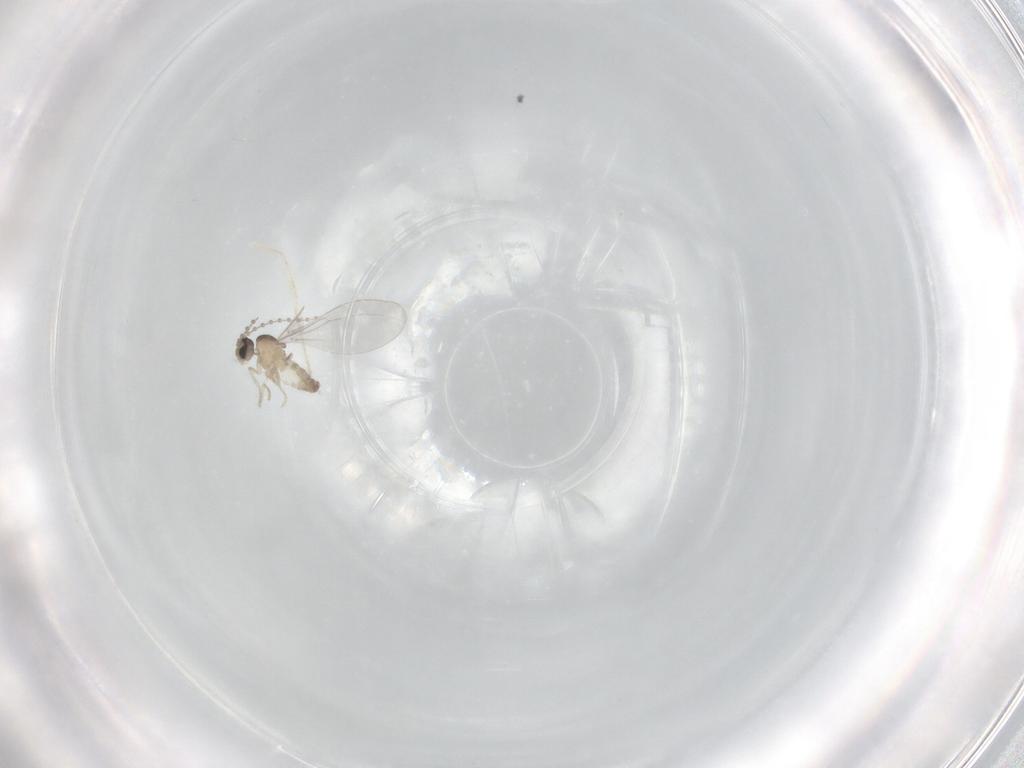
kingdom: Animalia
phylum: Arthropoda
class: Insecta
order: Diptera
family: Cecidomyiidae
